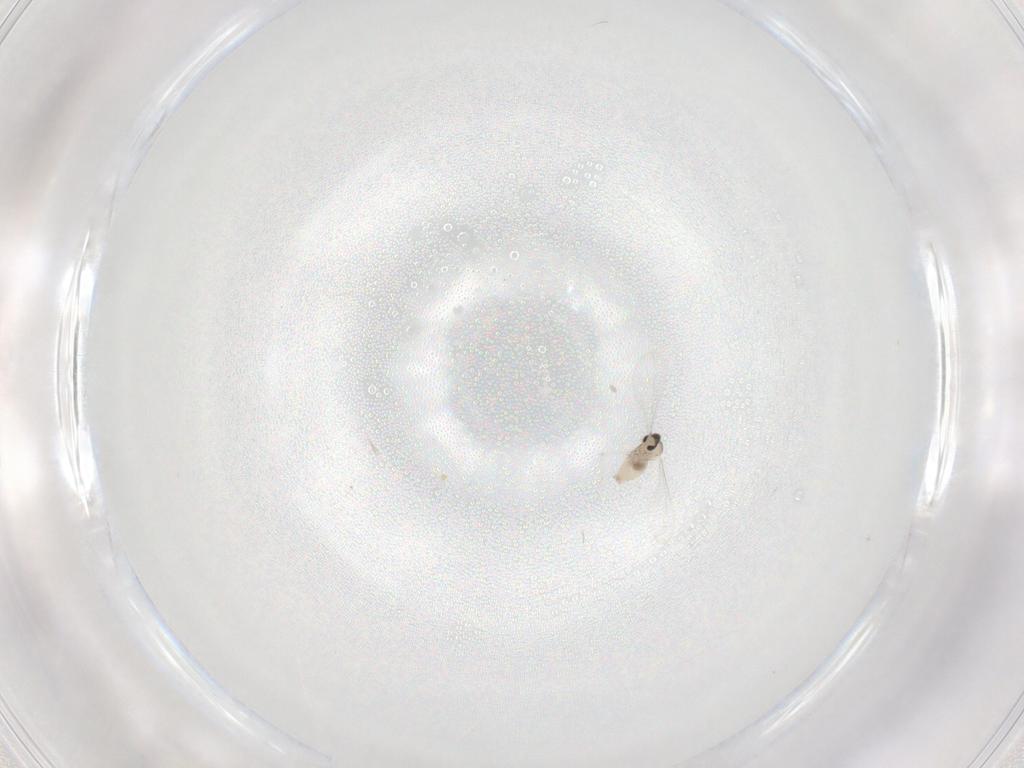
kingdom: Animalia
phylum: Arthropoda
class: Insecta
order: Diptera
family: Cecidomyiidae
